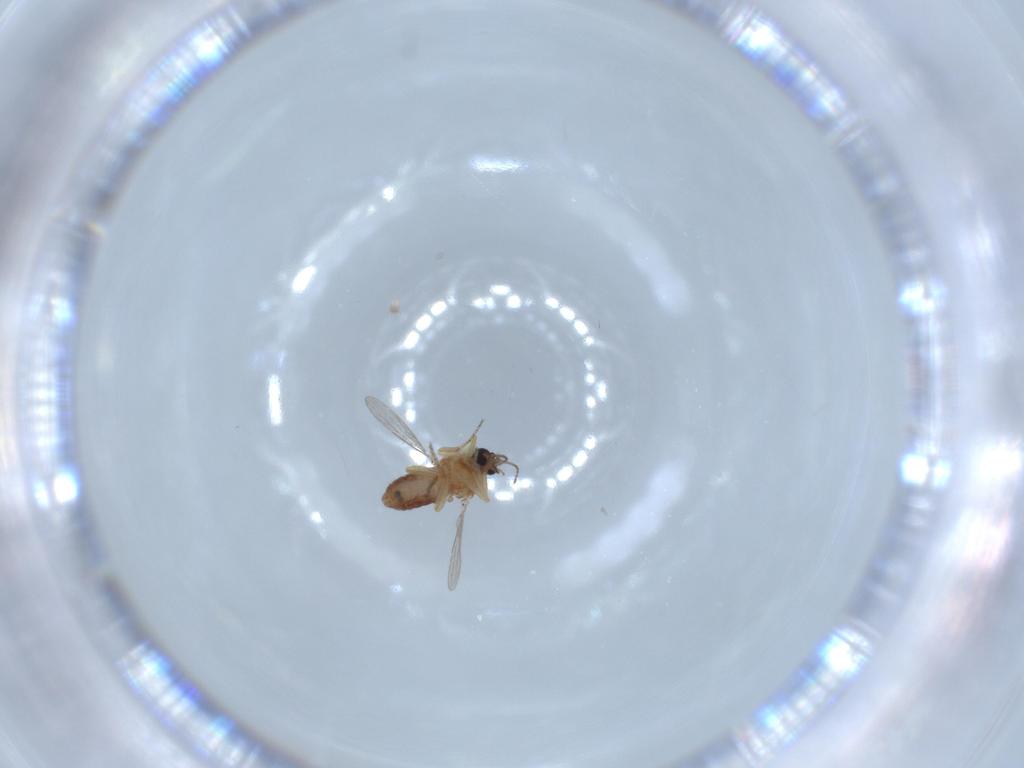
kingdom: Animalia
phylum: Arthropoda
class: Insecta
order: Diptera
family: Ceratopogonidae
